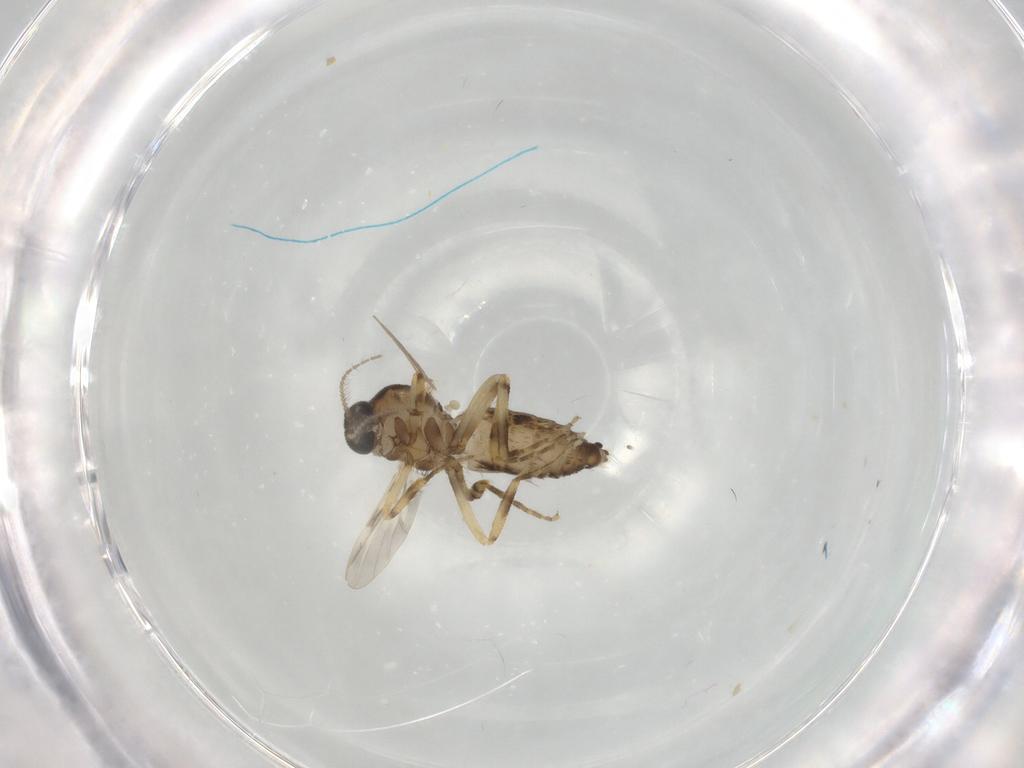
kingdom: Animalia
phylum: Arthropoda
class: Insecta
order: Diptera
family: Ceratopogonidae
